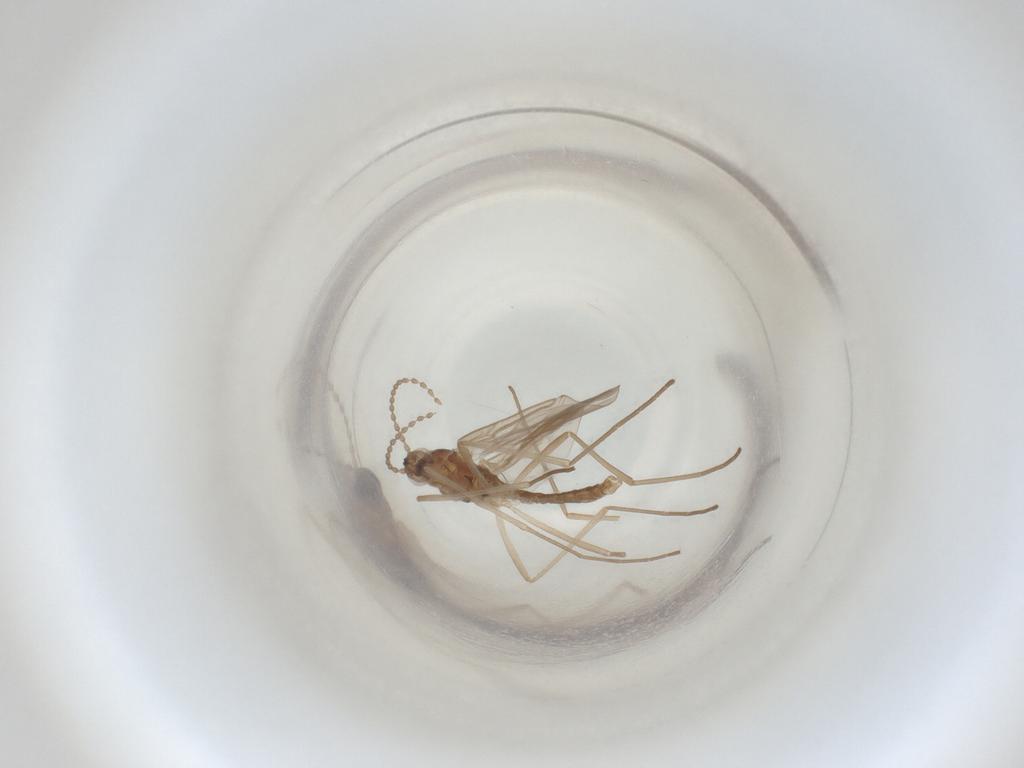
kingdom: Animalia
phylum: Arthropoda
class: Insecta
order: Diptera
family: Cecidomyiidae
